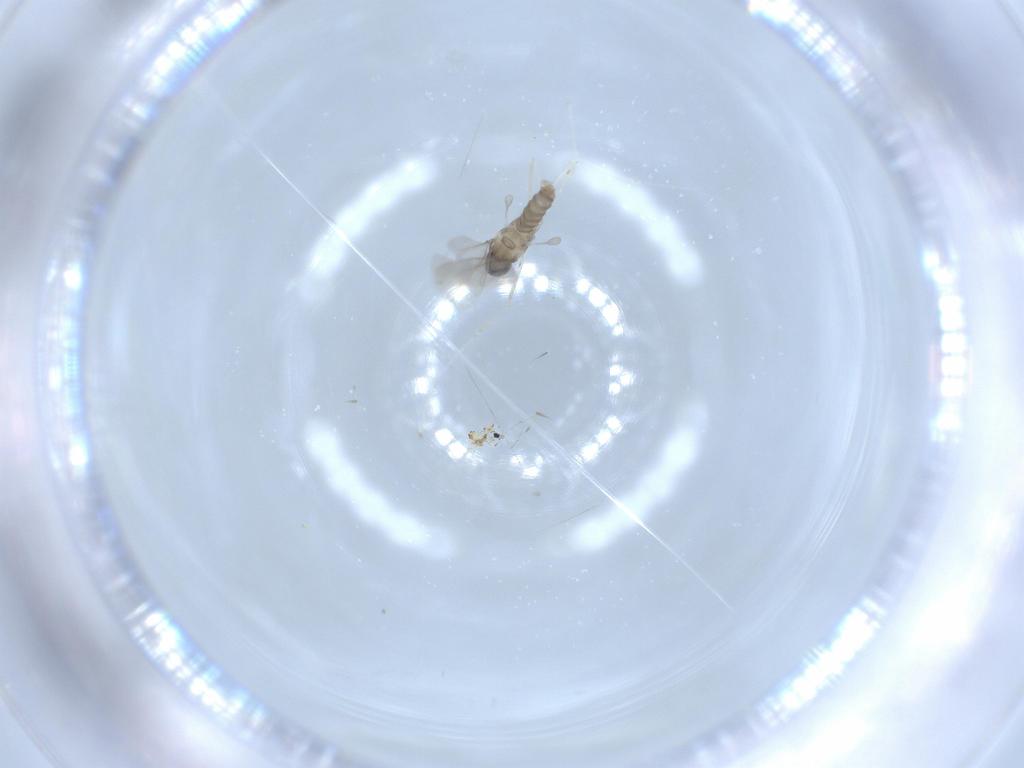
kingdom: Animalia
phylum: Arthropoda
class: Insecta
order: Diptera
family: Cecidomyiidae
